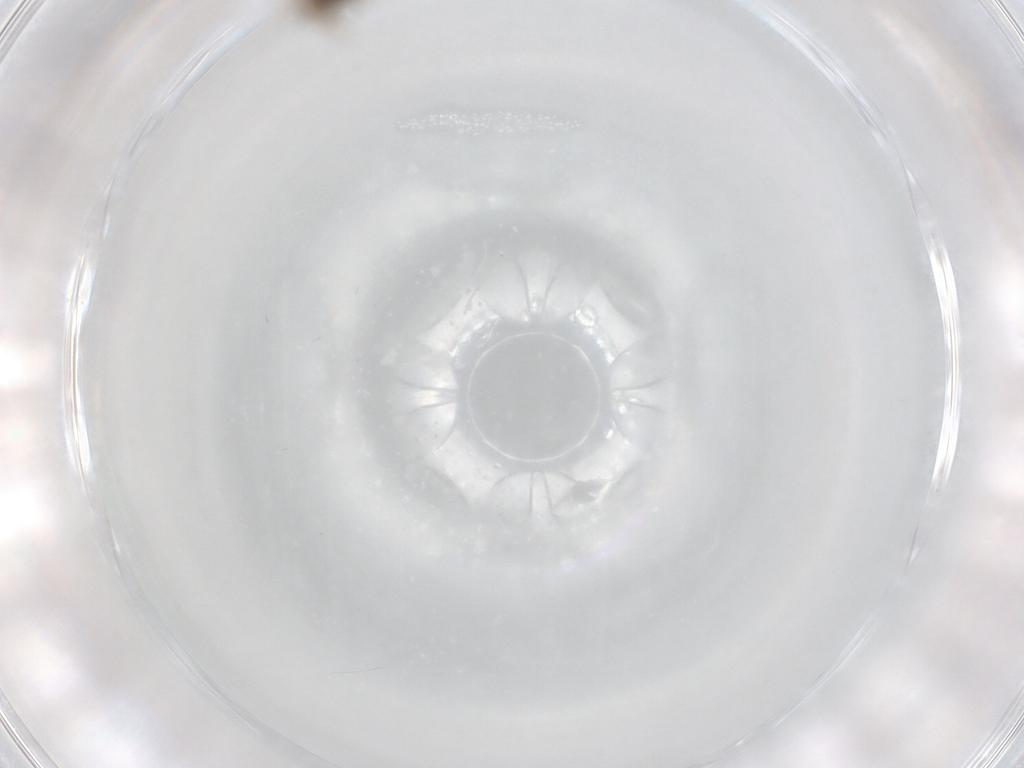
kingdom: Animalia
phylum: Arthropoda
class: Insecta
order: Diptera
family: Sciaridae
